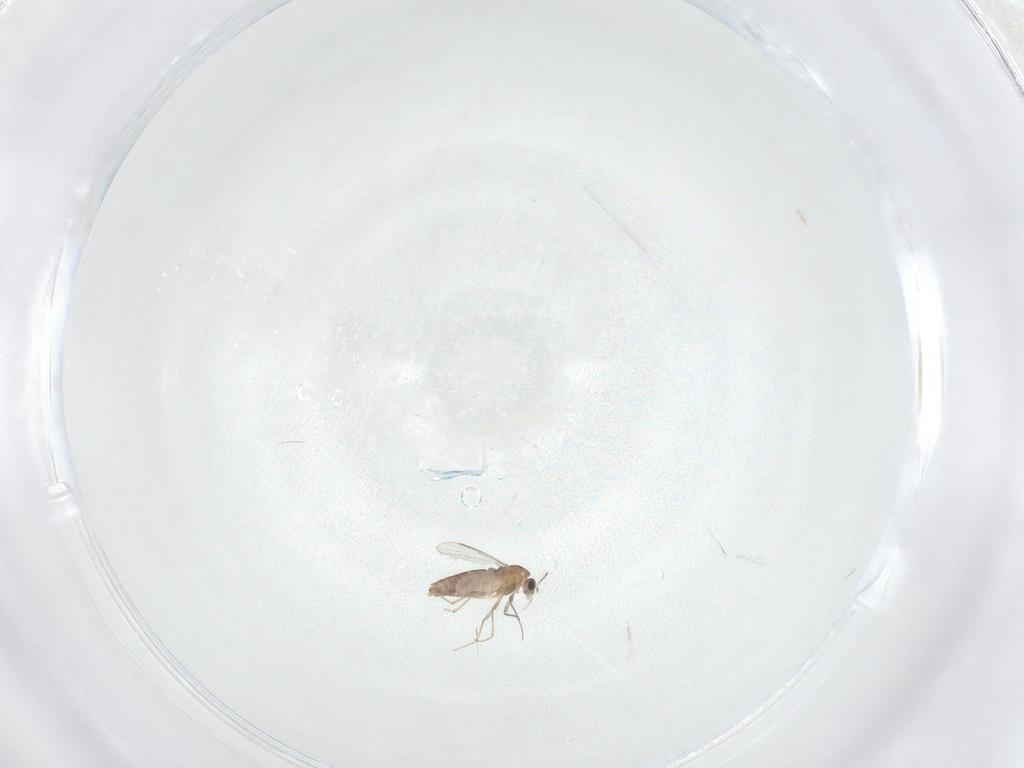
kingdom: Animalia
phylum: Arthropoda
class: Insecta
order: Diptera
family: Chironomidae
